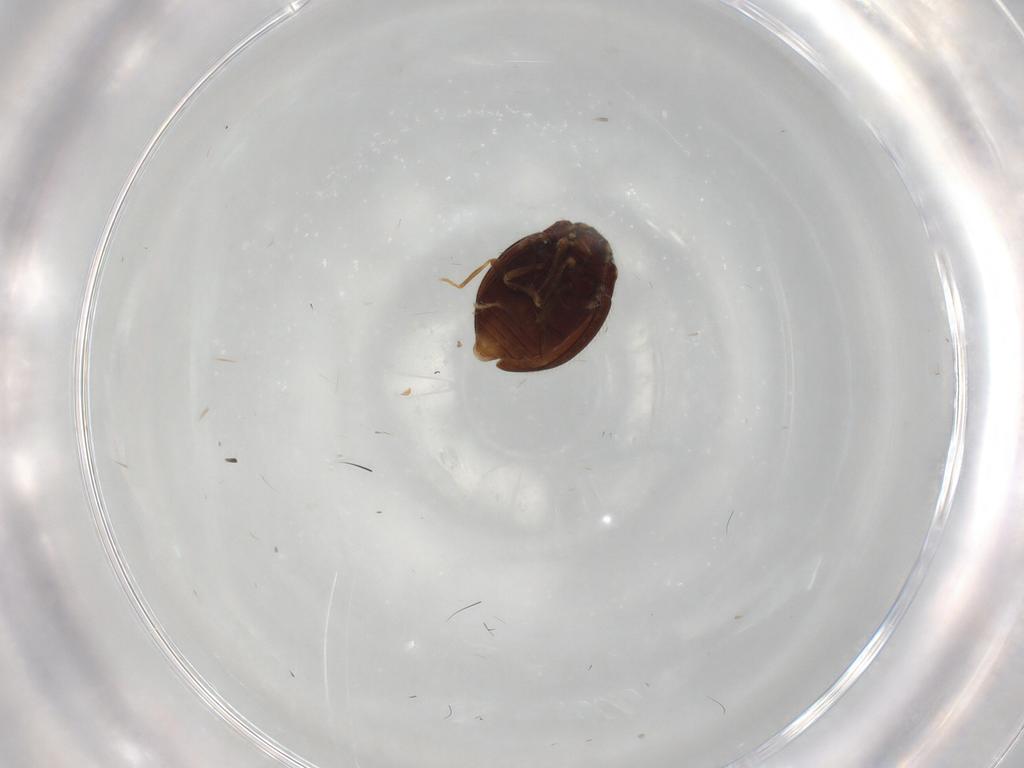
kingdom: Animalia
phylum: Arthropoda
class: Insecta
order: Coleoptera
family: Anamorphidae
